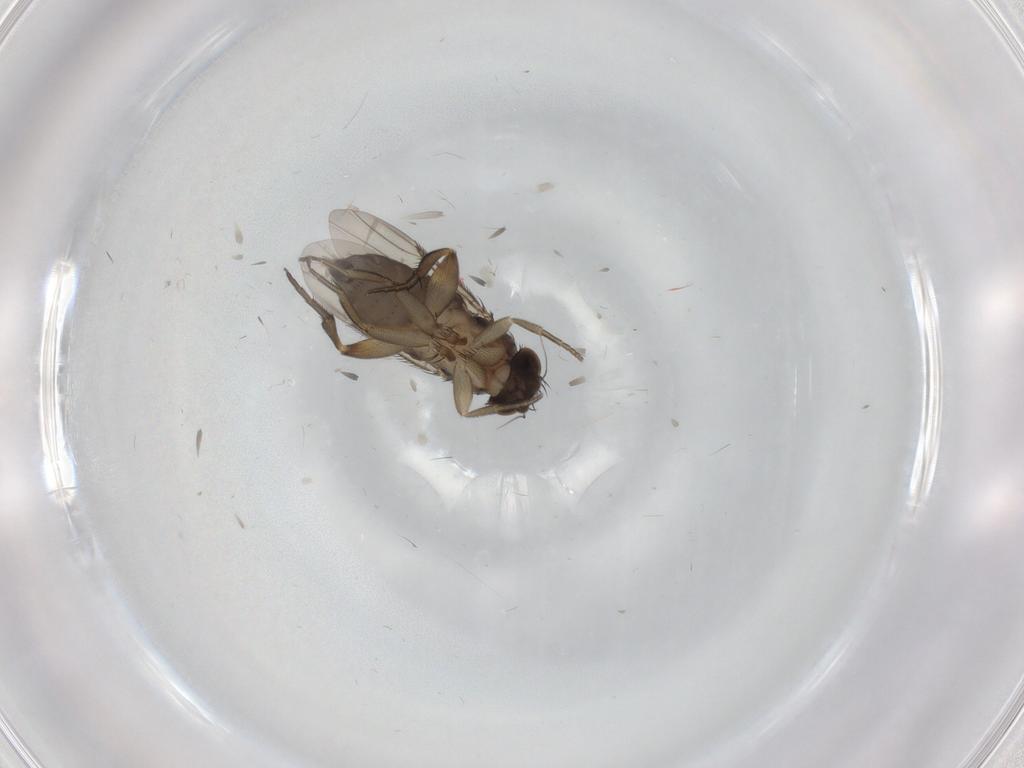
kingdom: Animalia
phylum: Arthropoda
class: Insecta
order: Diptera
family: Phoridae
